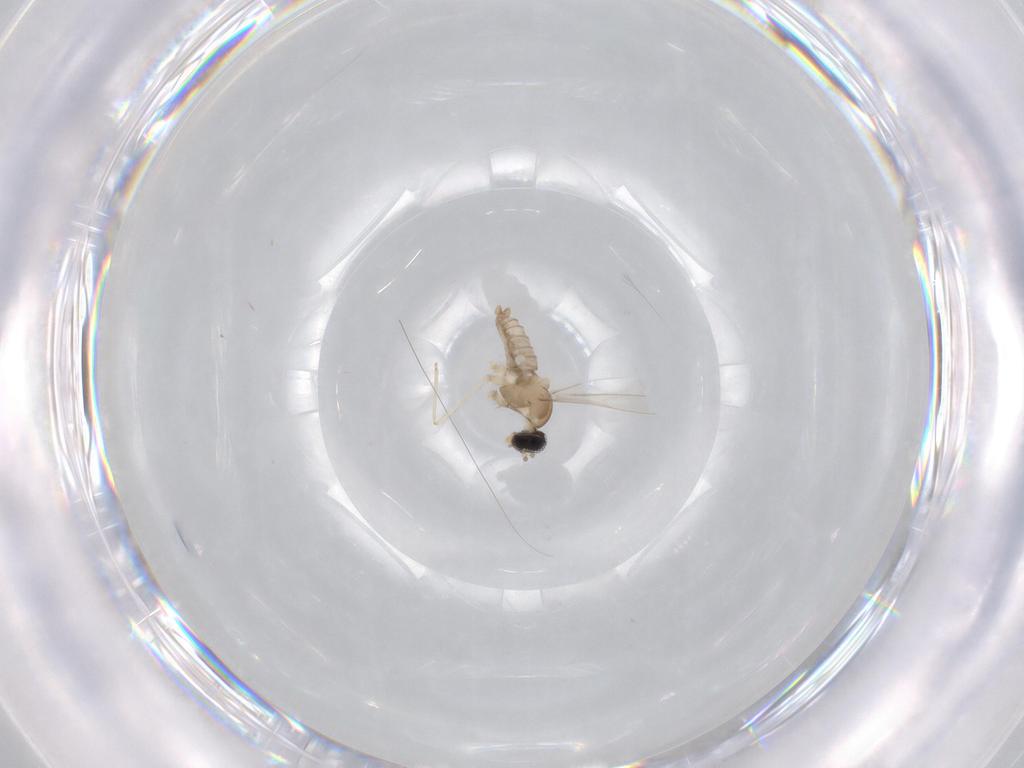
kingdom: Animalia
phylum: Arthropoda
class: Insecta
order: Diptera
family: Cecidomyiidae
